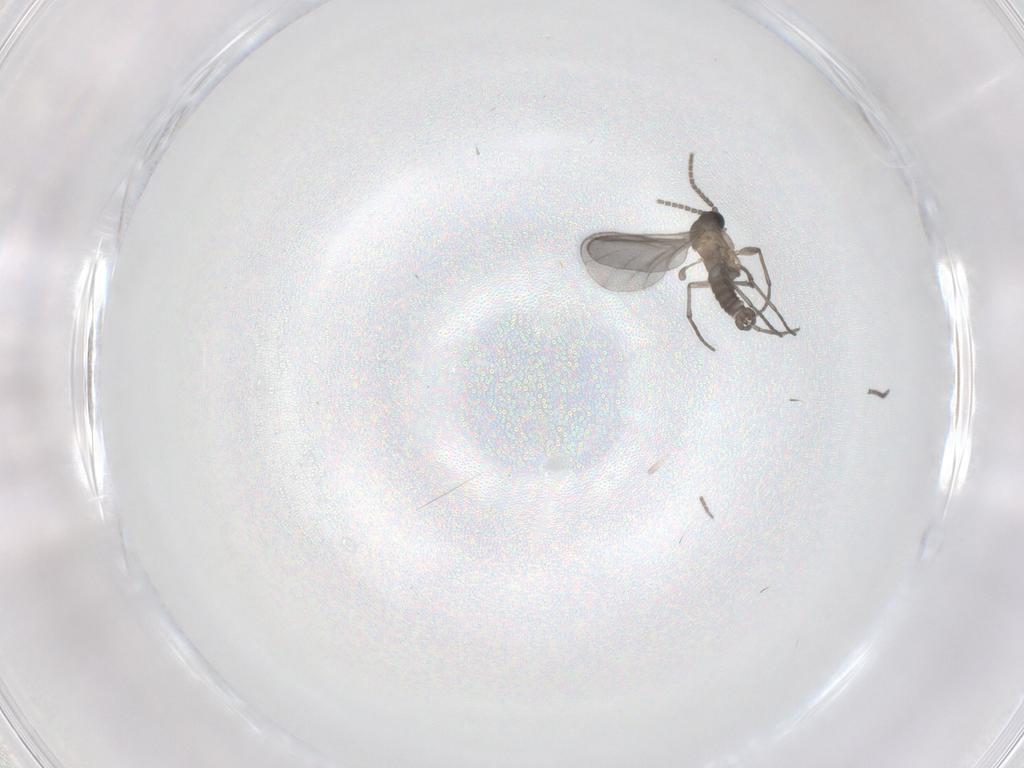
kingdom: Animalia
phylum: Arthropoda
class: Insecta
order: Diptera
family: Sciaridae
